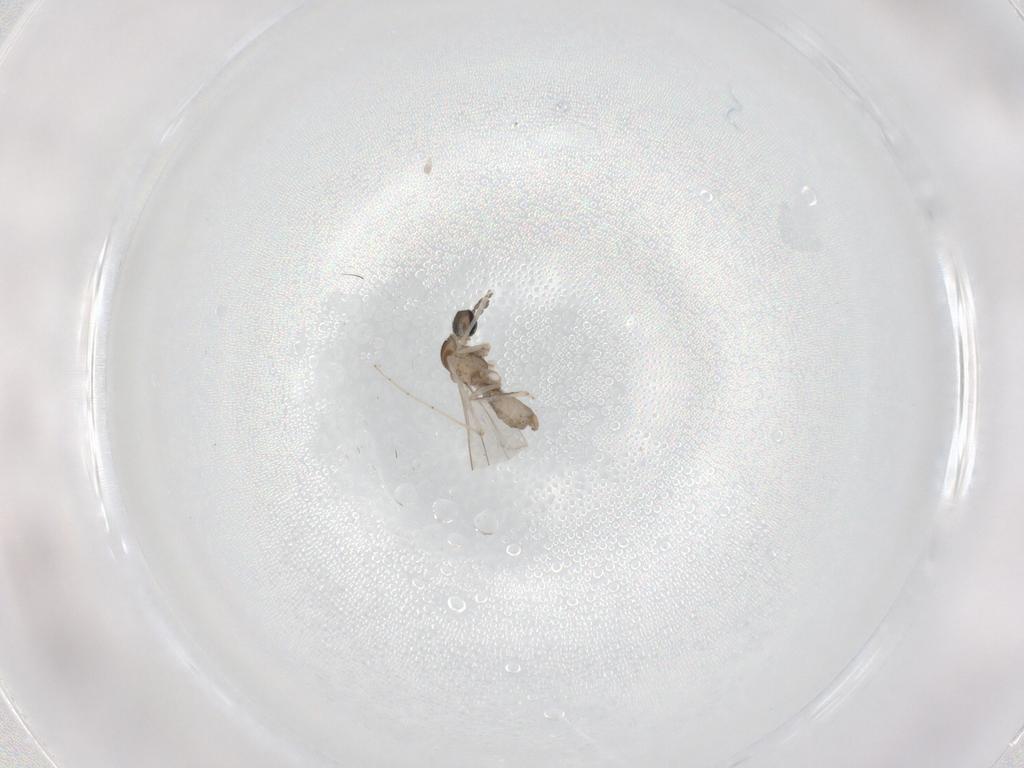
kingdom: Animalia
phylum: Arthropoda
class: Insecta
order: Diptera
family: Cecidomyiidae
